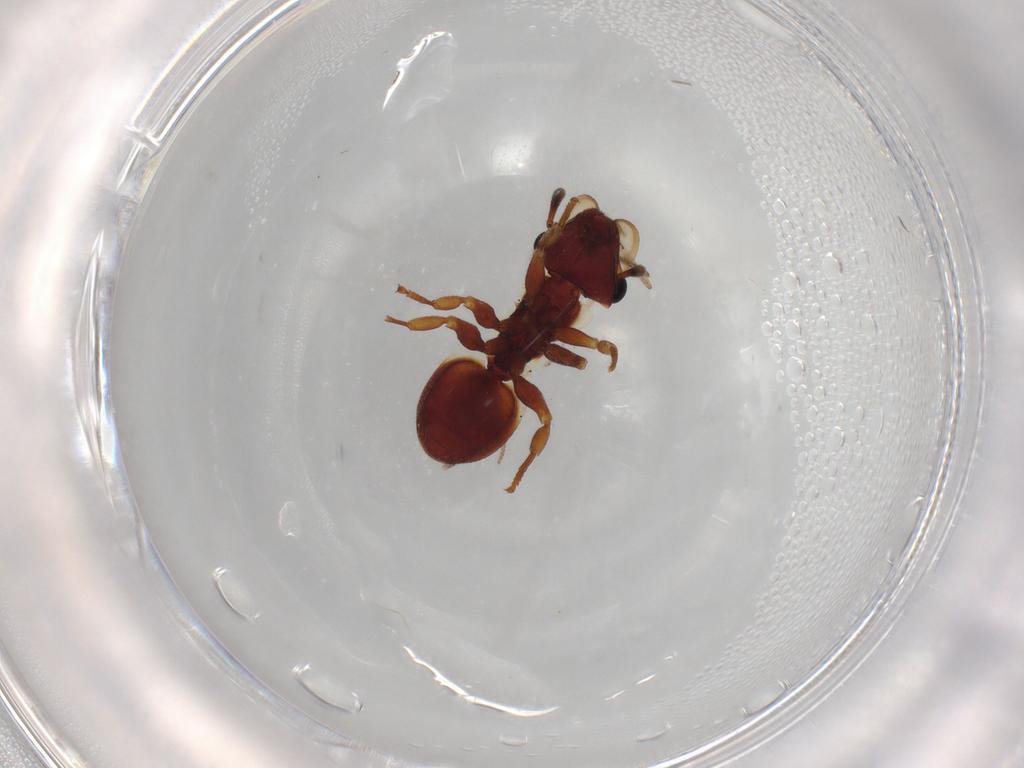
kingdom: Animalia
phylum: Arthropoda
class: Insecta
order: Hymenoptera
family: Formicidae
